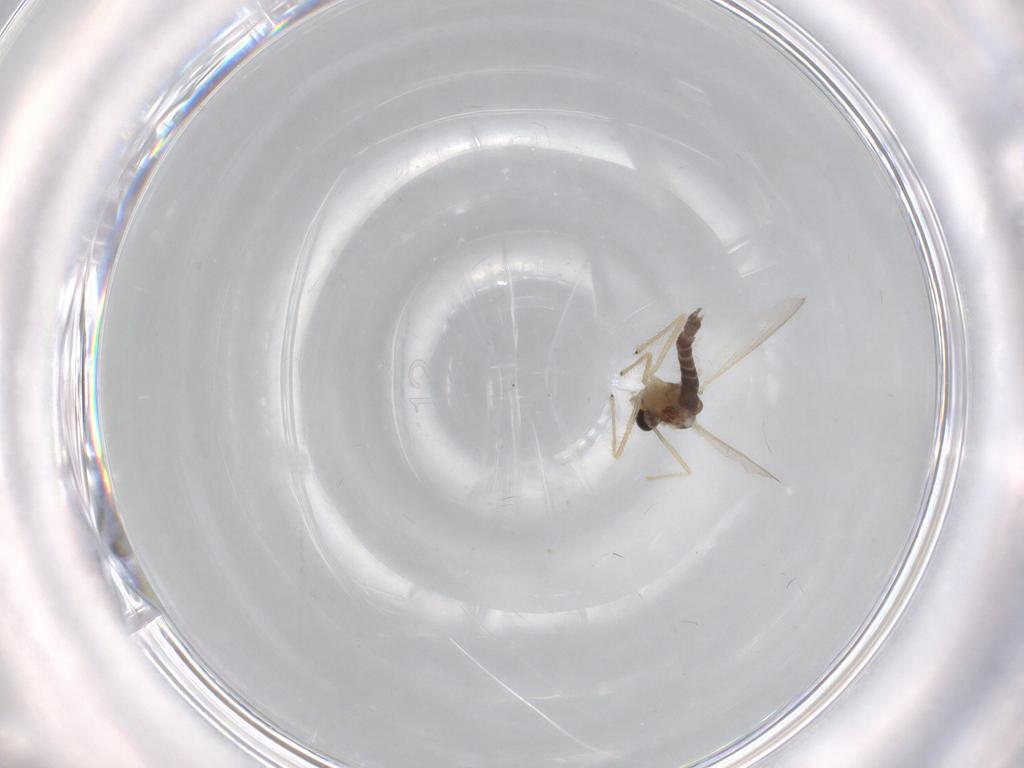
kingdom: Animalia
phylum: Arthropoda
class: Insecta
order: Diptera
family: Chironomidae
